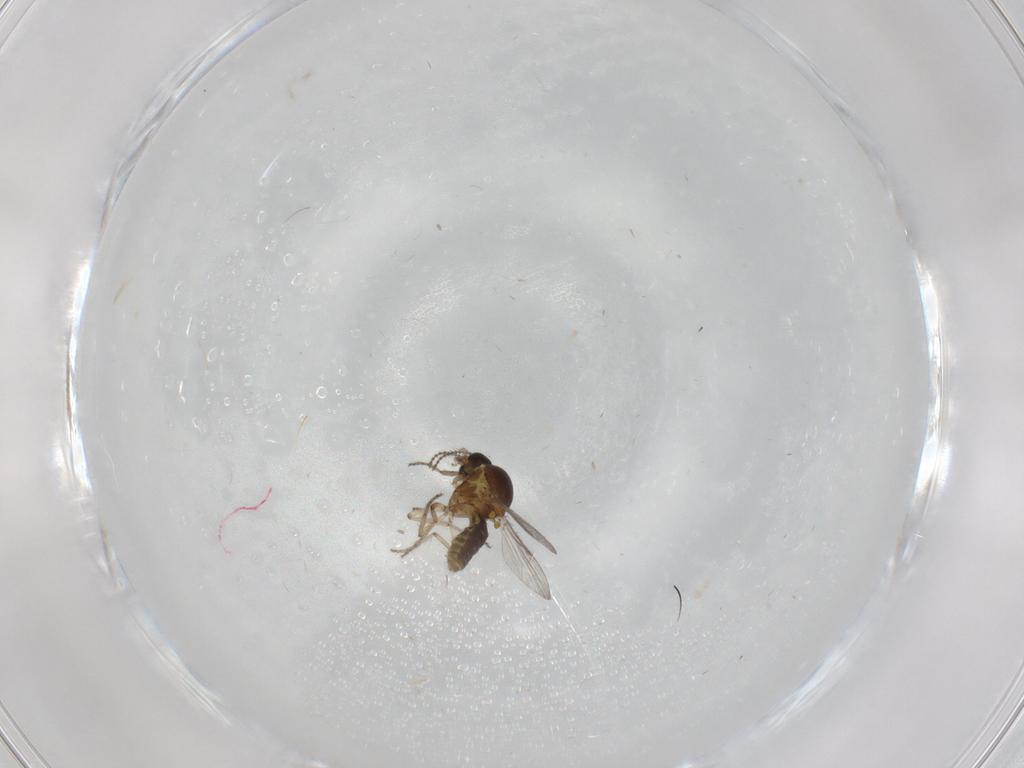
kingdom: Animalia
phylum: Arthropoda
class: Insecta
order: Diptera
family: Ceratopogonidae
